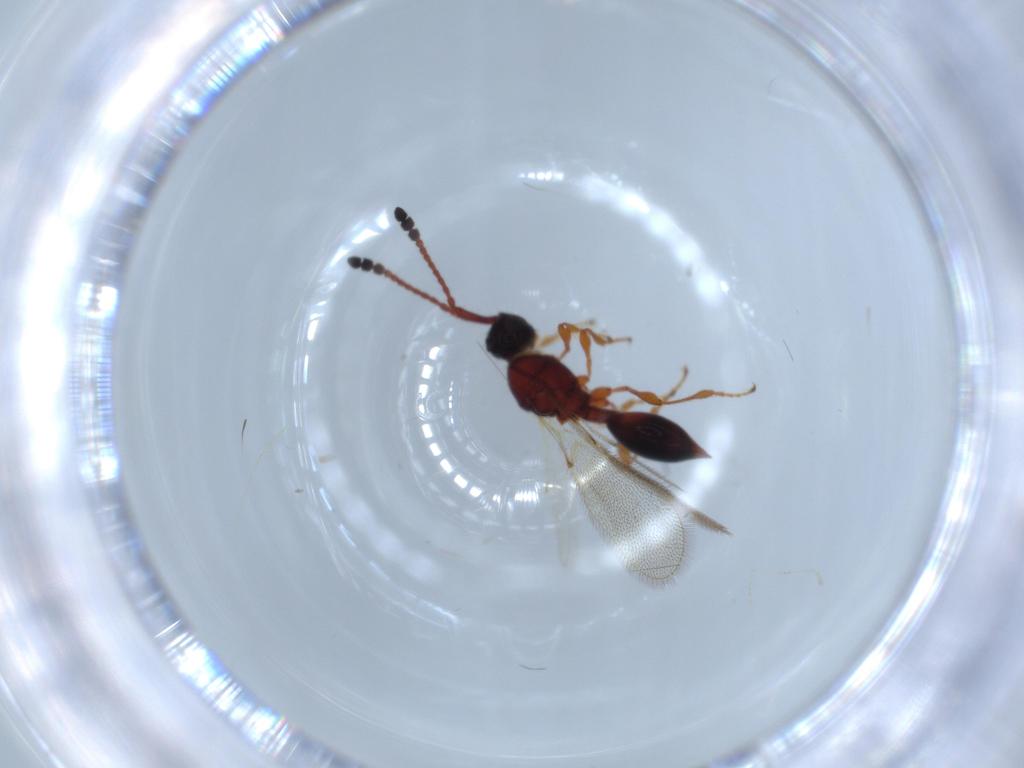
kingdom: Animalia
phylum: Arthropoda
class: Insecta
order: Hymenoptera
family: Diapriidae
